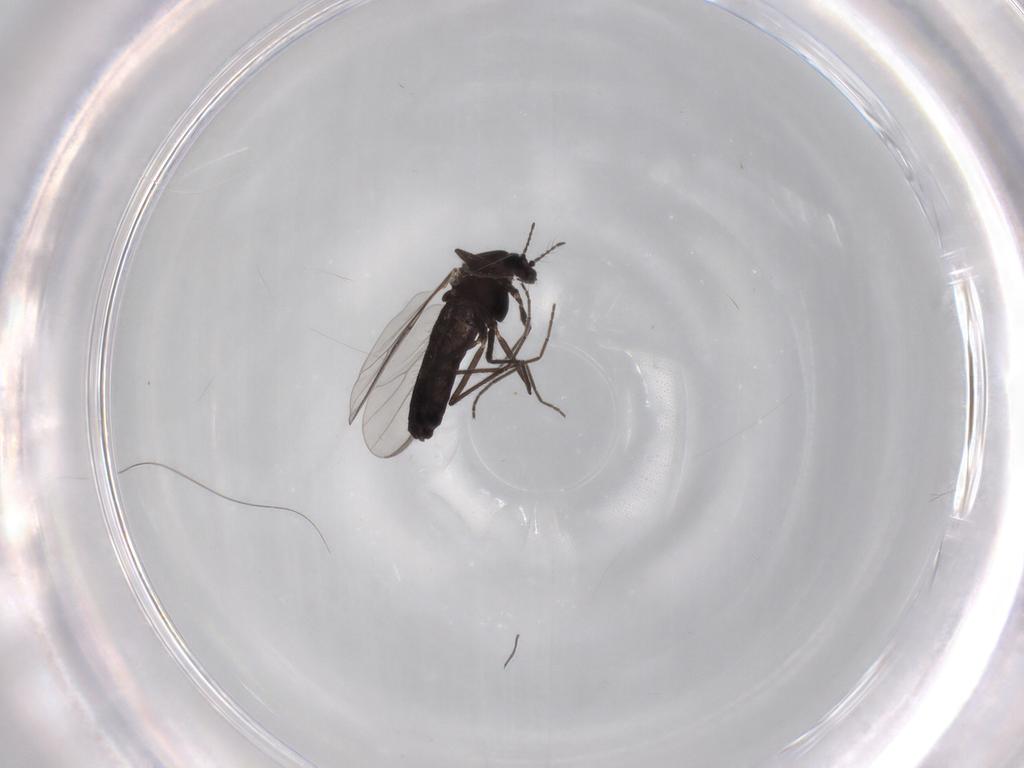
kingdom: Animalia
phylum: Arthropoda
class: Insecta
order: Diptera
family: Chironomidae
